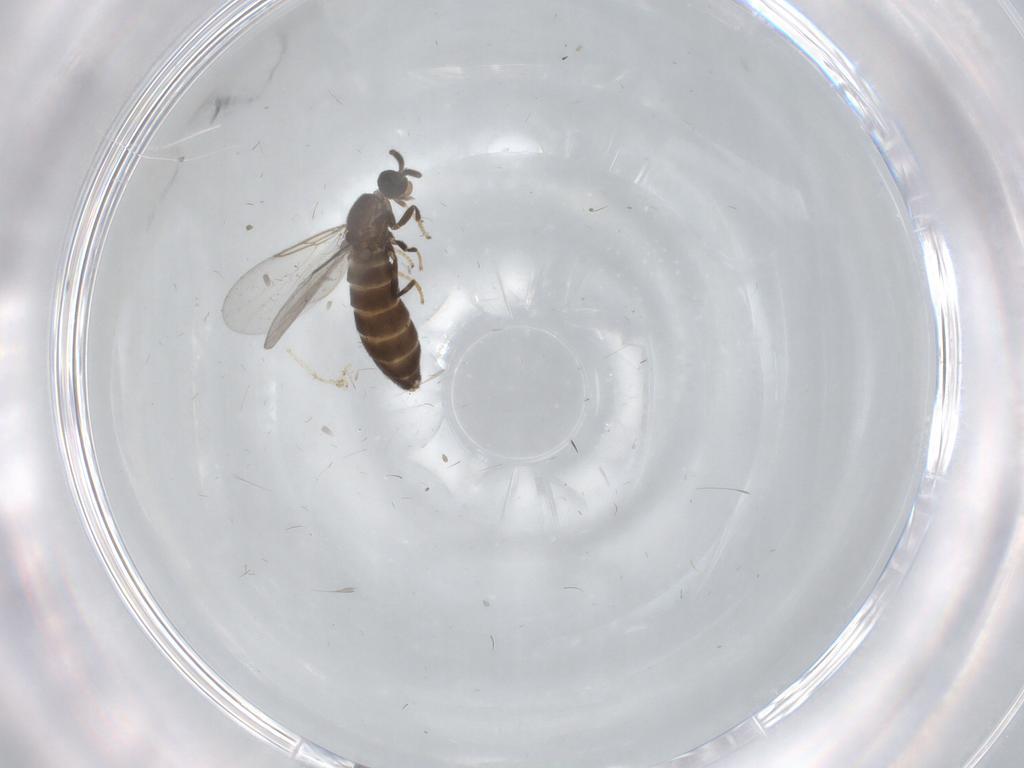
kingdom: Animalia
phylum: Arthropoda
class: Insecta
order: Diptera
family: Scatopsidae
